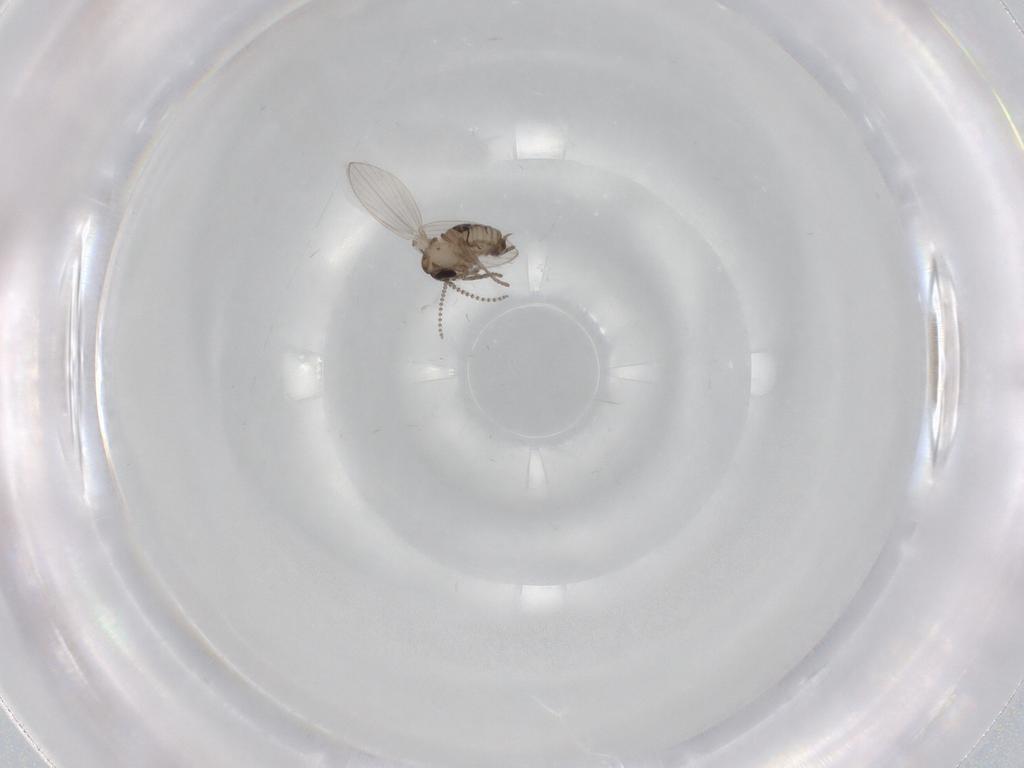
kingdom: Animalia
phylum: Arthropoda
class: Insecta
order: Diptera
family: Psychodidae
